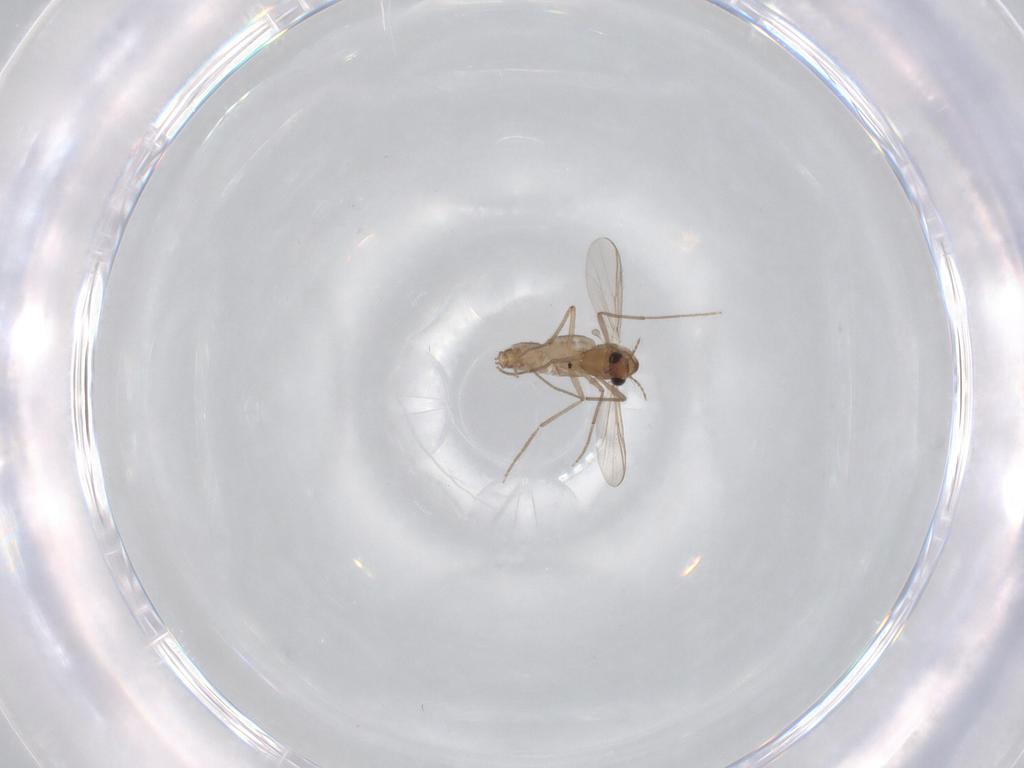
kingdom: Animalia
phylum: Arthropoda
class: Insecta
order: Diptera
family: Chironomidae
